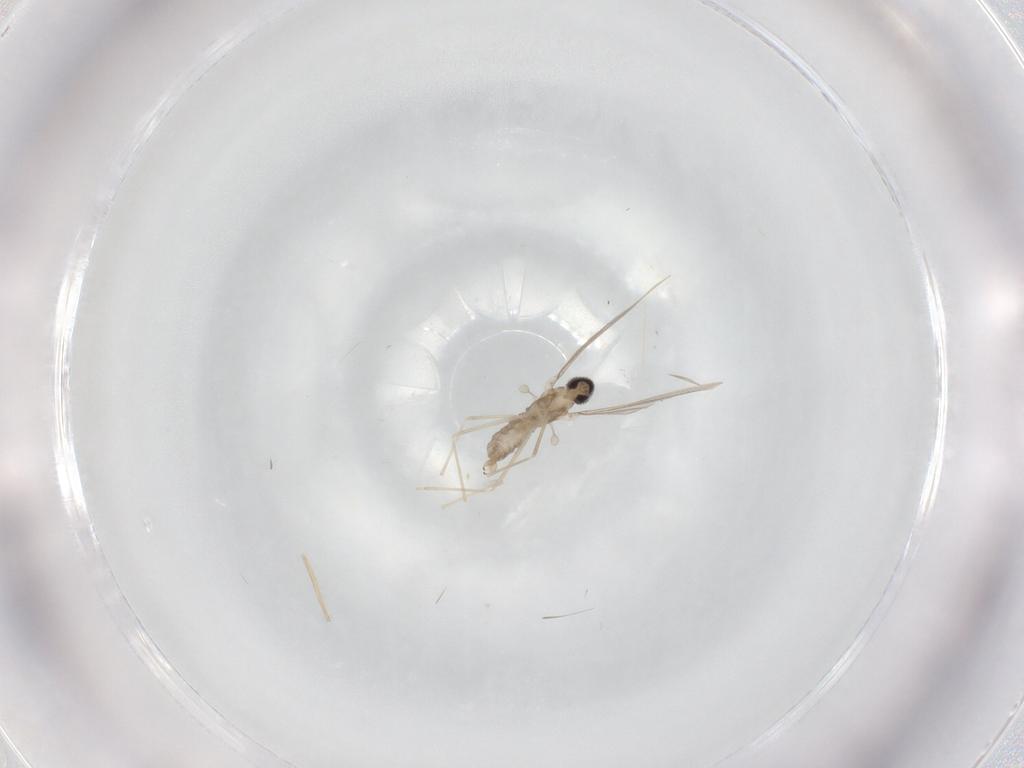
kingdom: Animalia
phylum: Arthropoda
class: Insecta
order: Diptera
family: Cecidomyiidae
